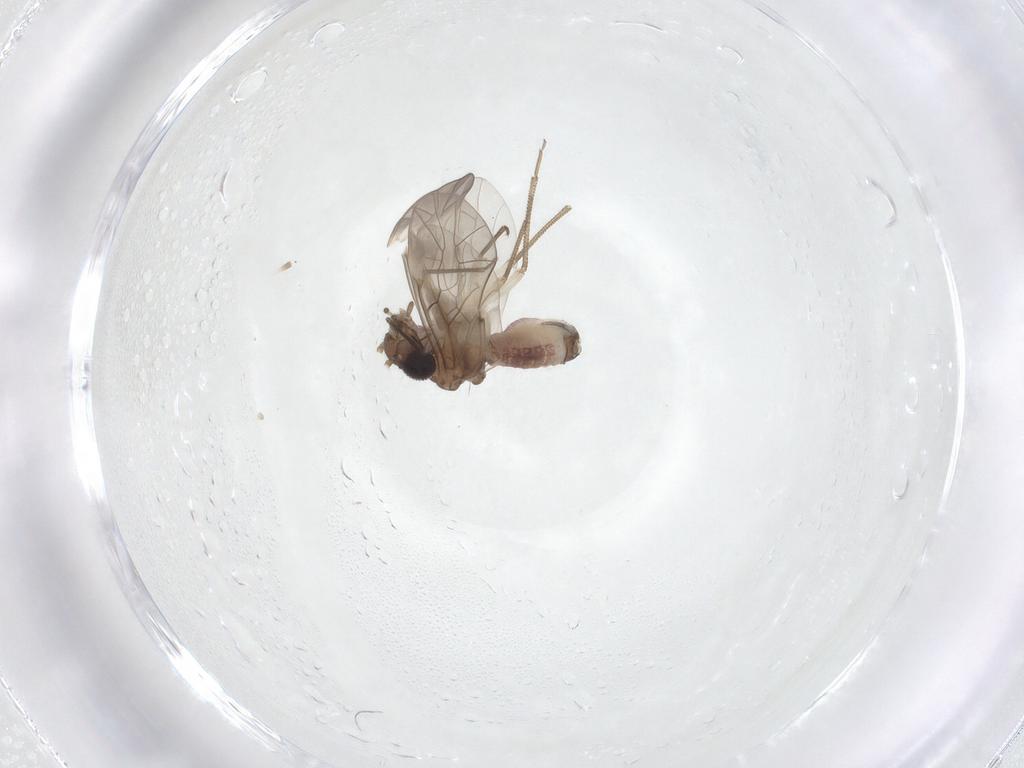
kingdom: Animalia
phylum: Arthropoda
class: Insecta
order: Psocodea
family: Peripsocidae
